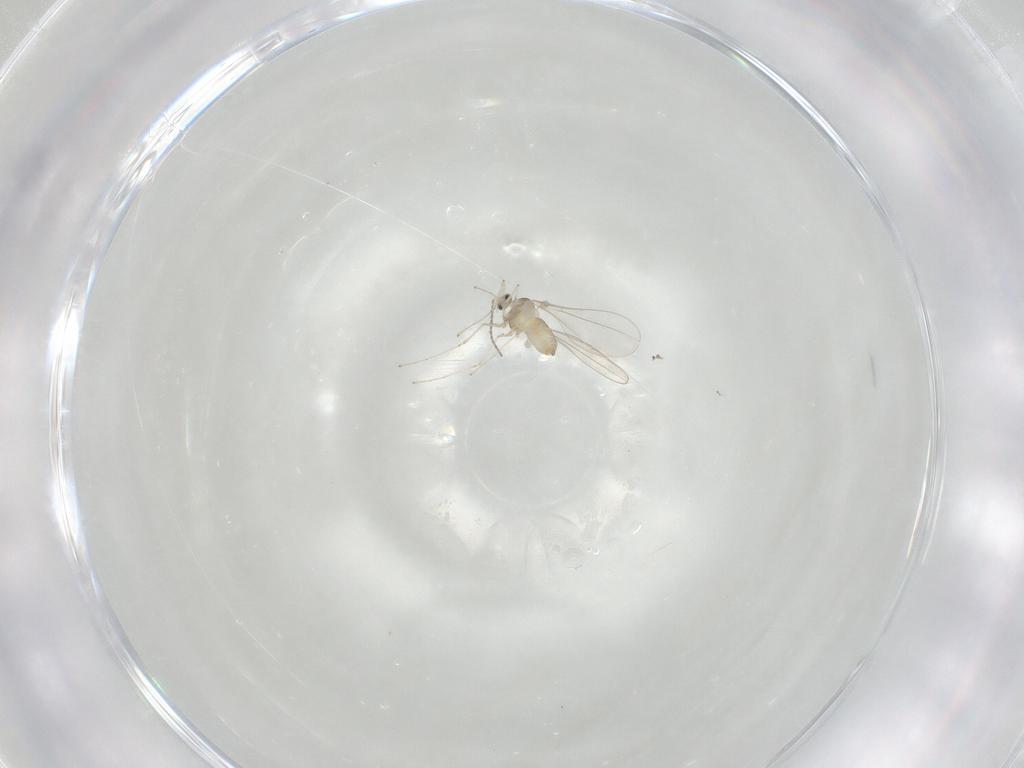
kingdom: Animalia
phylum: Arthropoda
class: Insecta
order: Diptera
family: Cecidomyiidae
